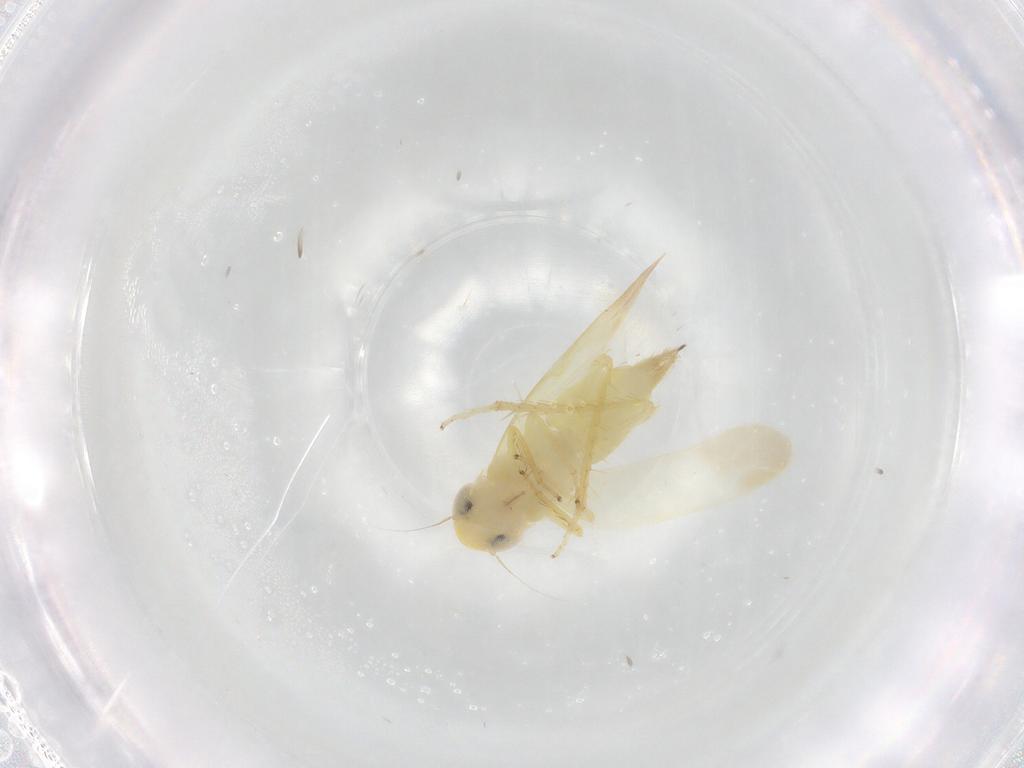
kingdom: Animalia
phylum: Arthropoda
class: Insecta
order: Hemiptera
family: Cicadellidae
